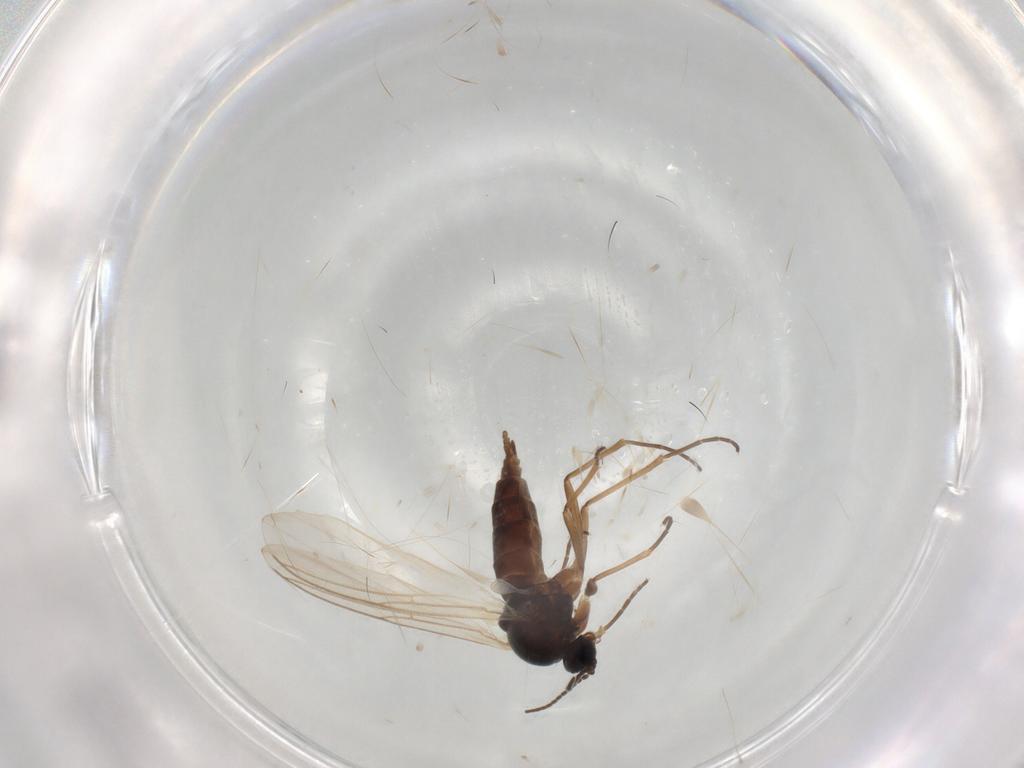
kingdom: Animalia
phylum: Arthropoda
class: Insecta
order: Diptera
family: Sciaridae
